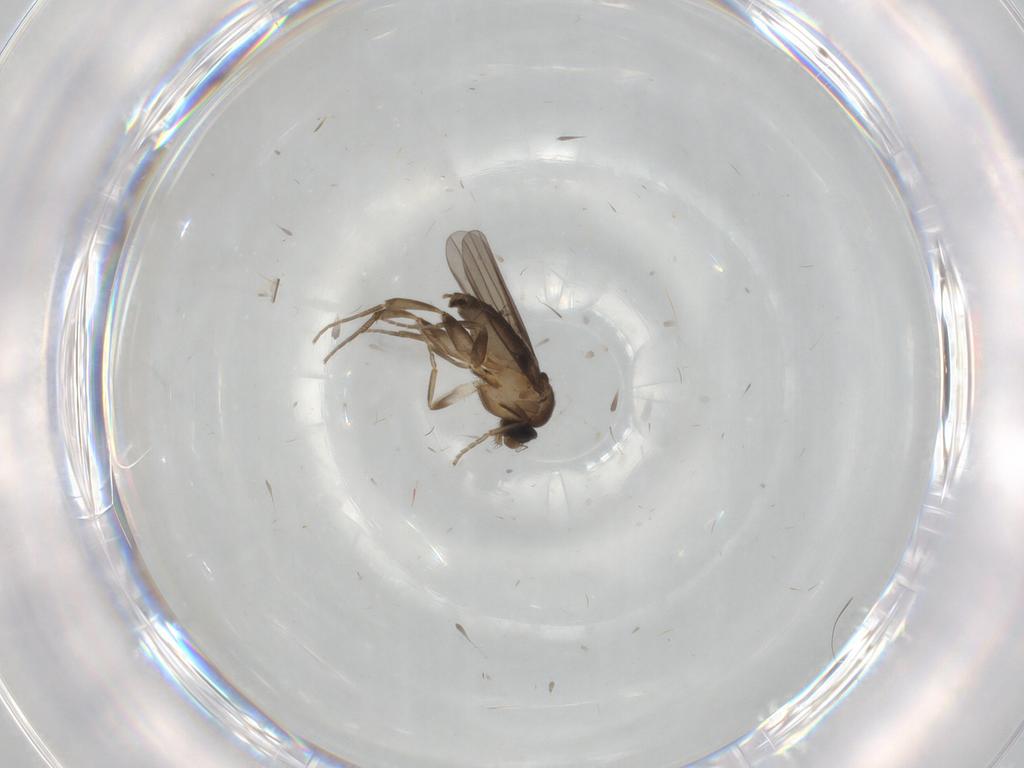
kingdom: Animalia
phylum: Arthropoda
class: Insecta
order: Diptera
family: Cecidomyiidae
